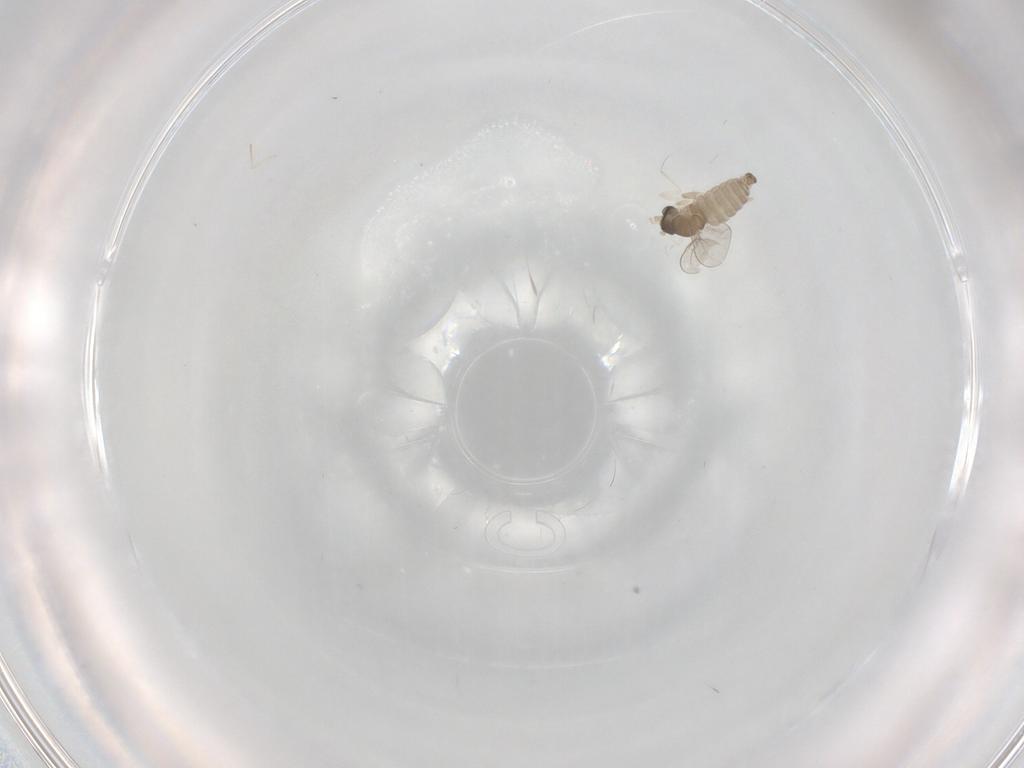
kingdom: Animalia
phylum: Arthropoda
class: Insecta
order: Diptera
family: Cecidomyiidae
